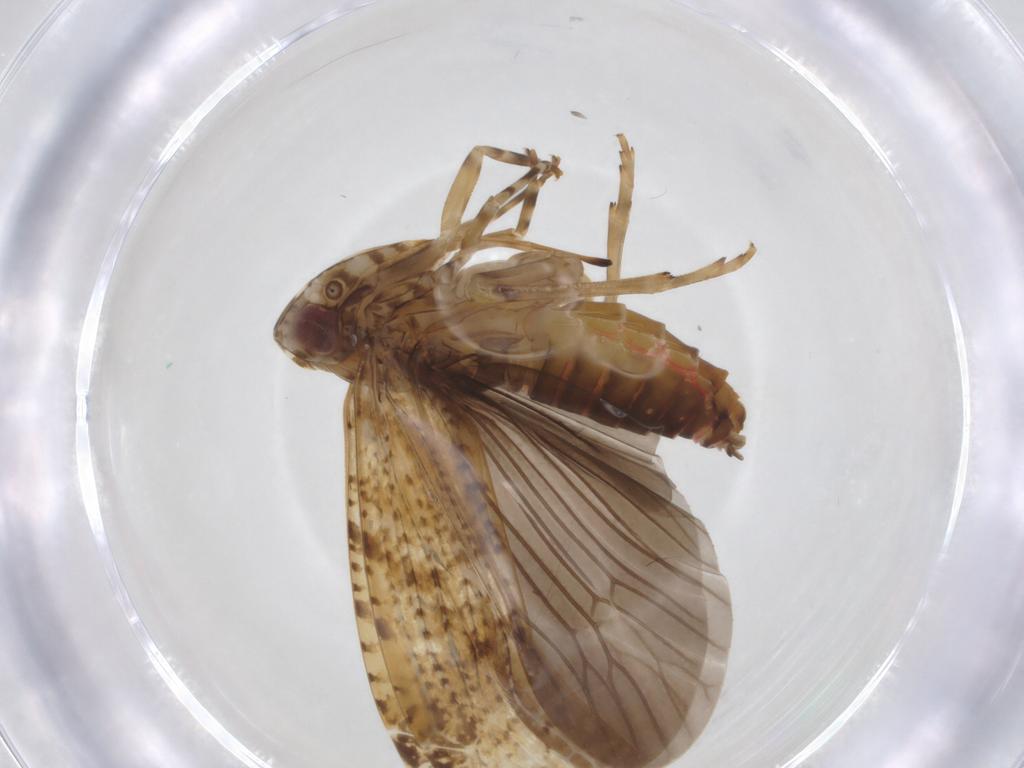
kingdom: Animalia
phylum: Arthropoda
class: Insecta
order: Hemiptera
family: Cercopidae
